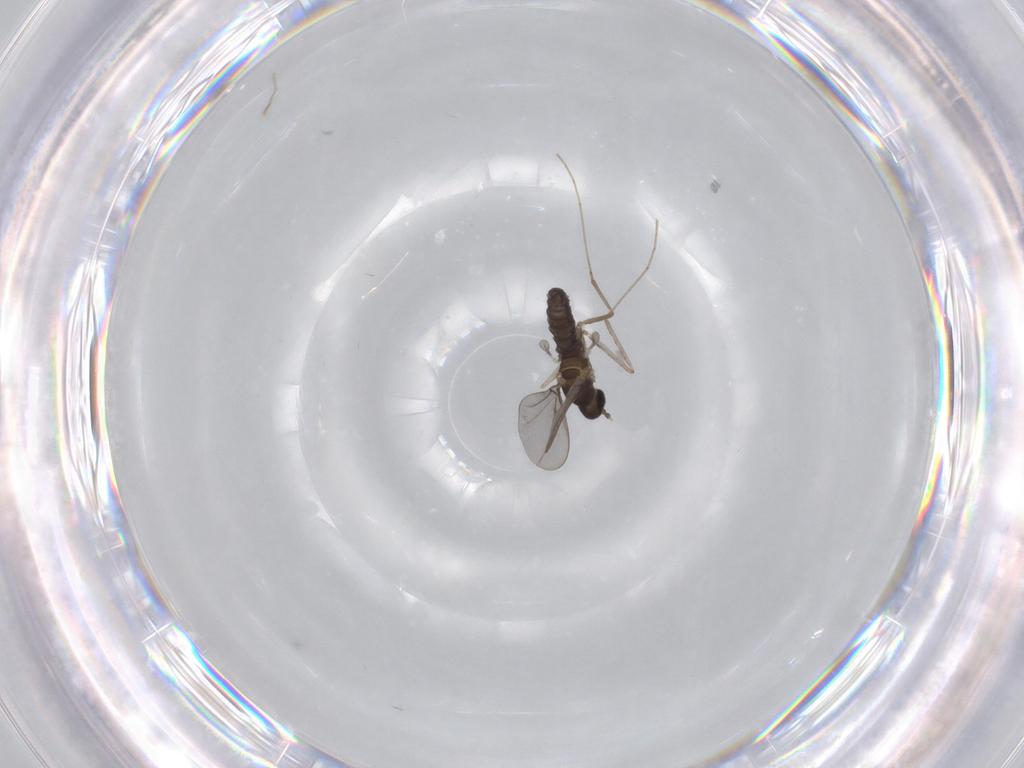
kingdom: Animalia
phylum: Arthropoda
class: Insecta
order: Diptera
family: Cecidomyiidae
